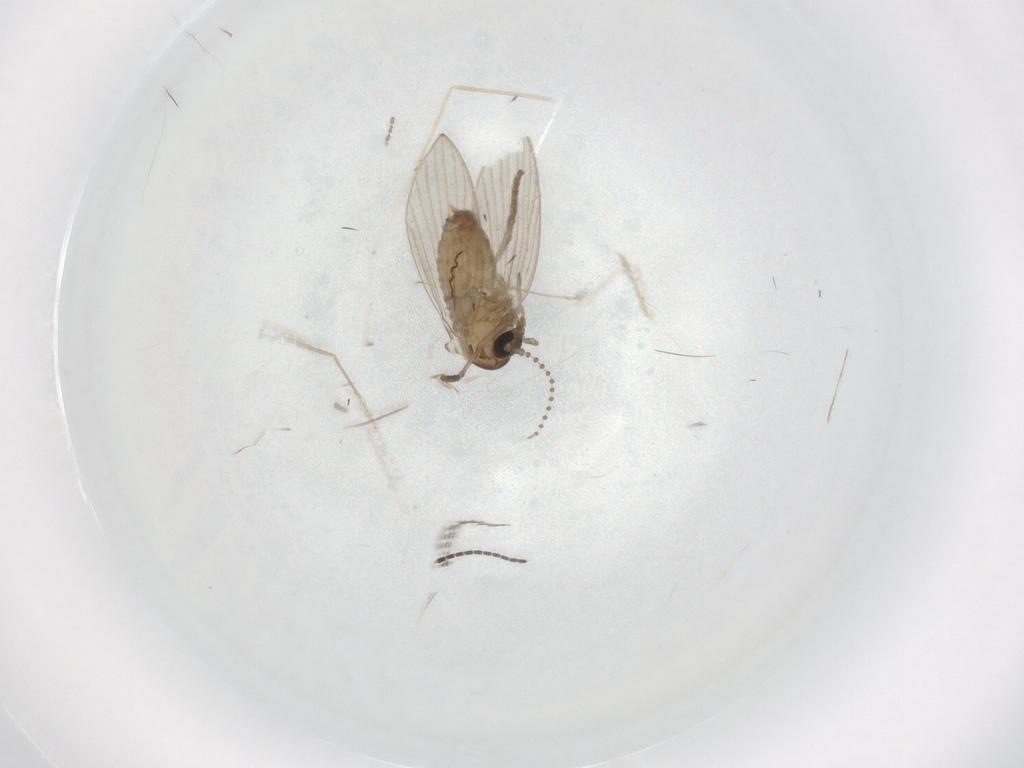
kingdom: Animalia
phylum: Arthropoda
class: Insecta
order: Diptera
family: Psychodidae
